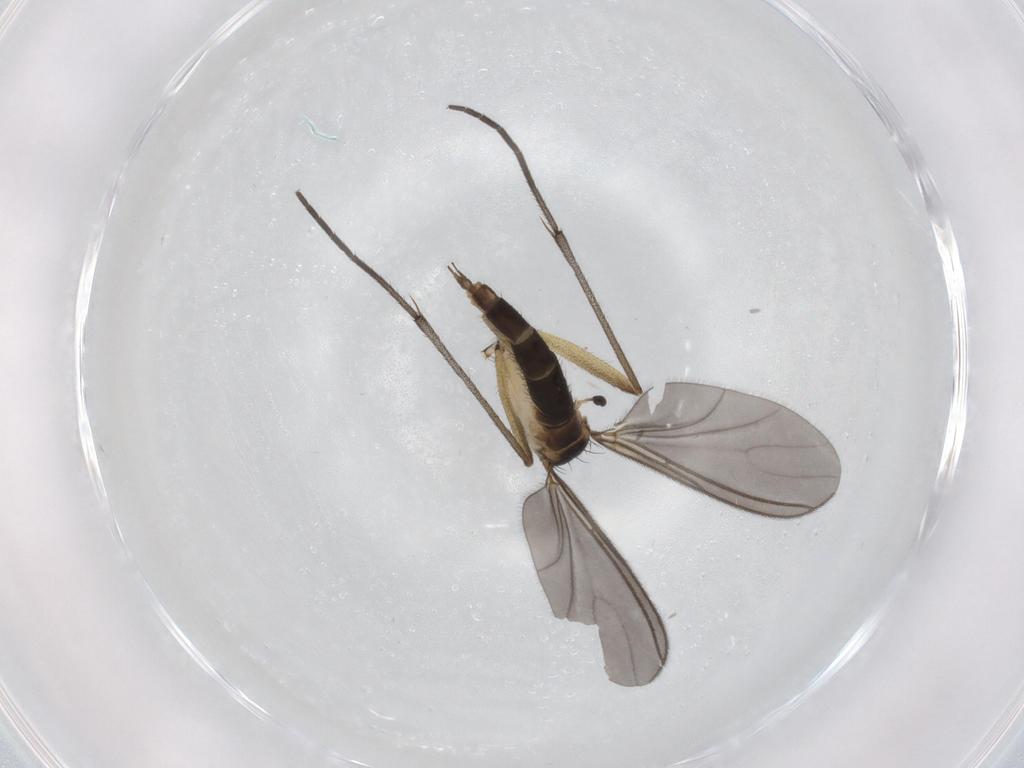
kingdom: Animalia
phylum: Arthropoda
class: Insecta
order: Diptera
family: Sciaridae
